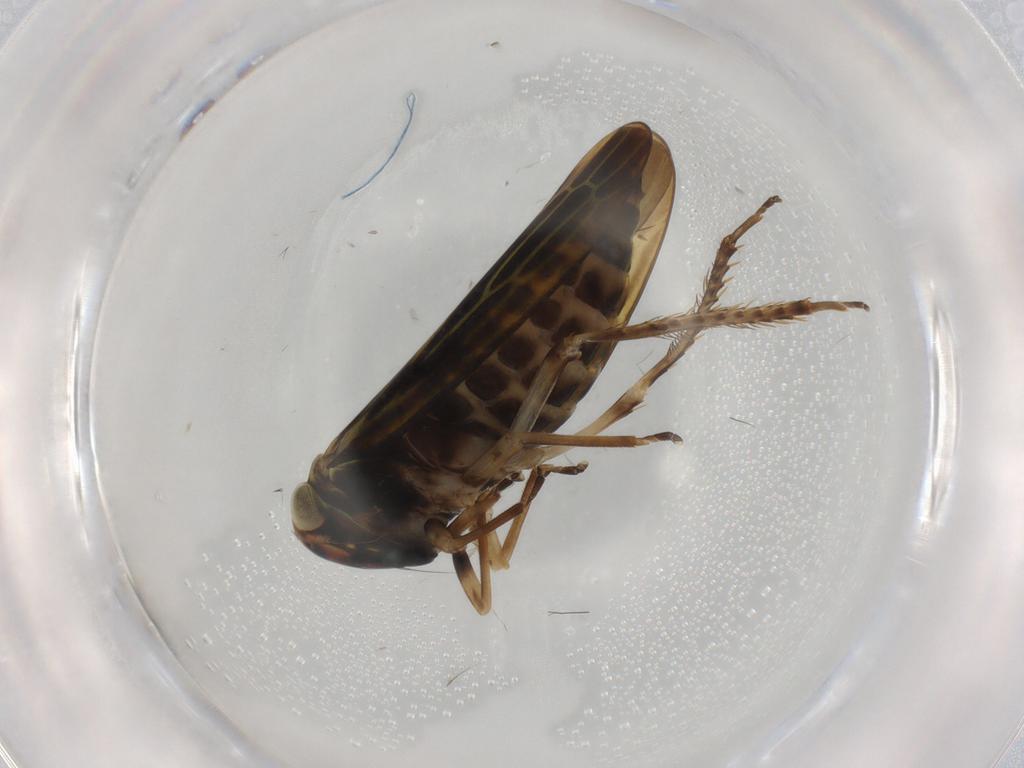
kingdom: Animalia
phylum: Arthropoda
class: Insecta
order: Hemiptera
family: Cicadellidae
